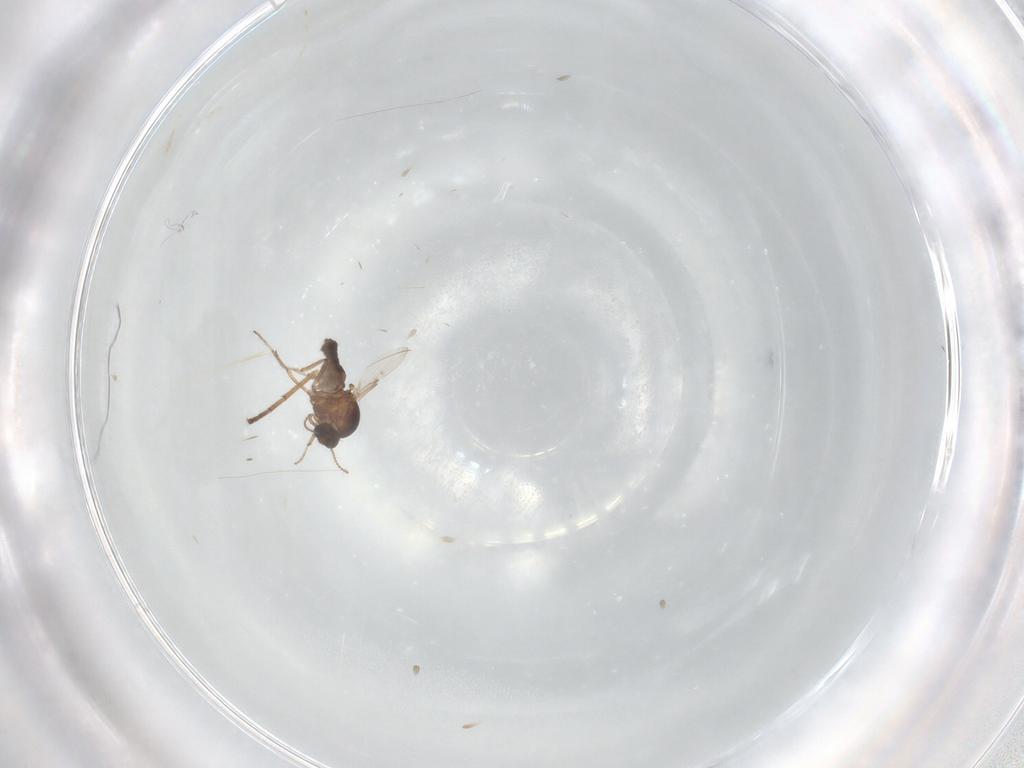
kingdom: Animalia
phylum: Arthropoda
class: Insecta
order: Diptera
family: Ceratopogonidae
